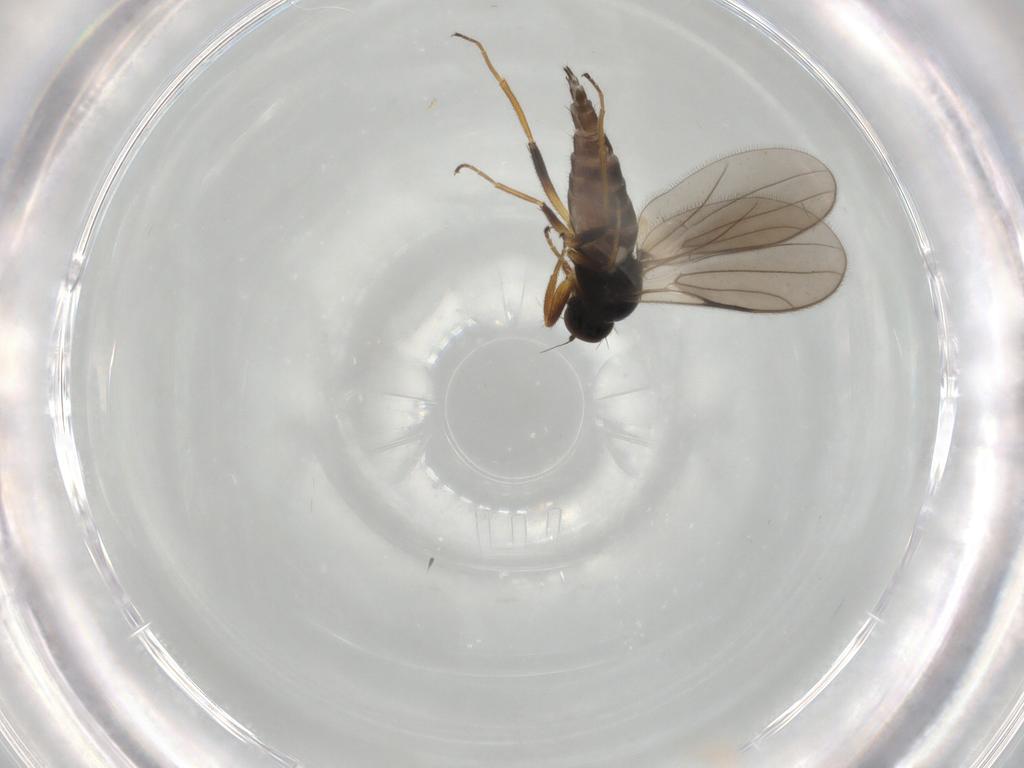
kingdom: Animalia
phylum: Arthropoda
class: Insecta
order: Diptera
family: Hybotidae
